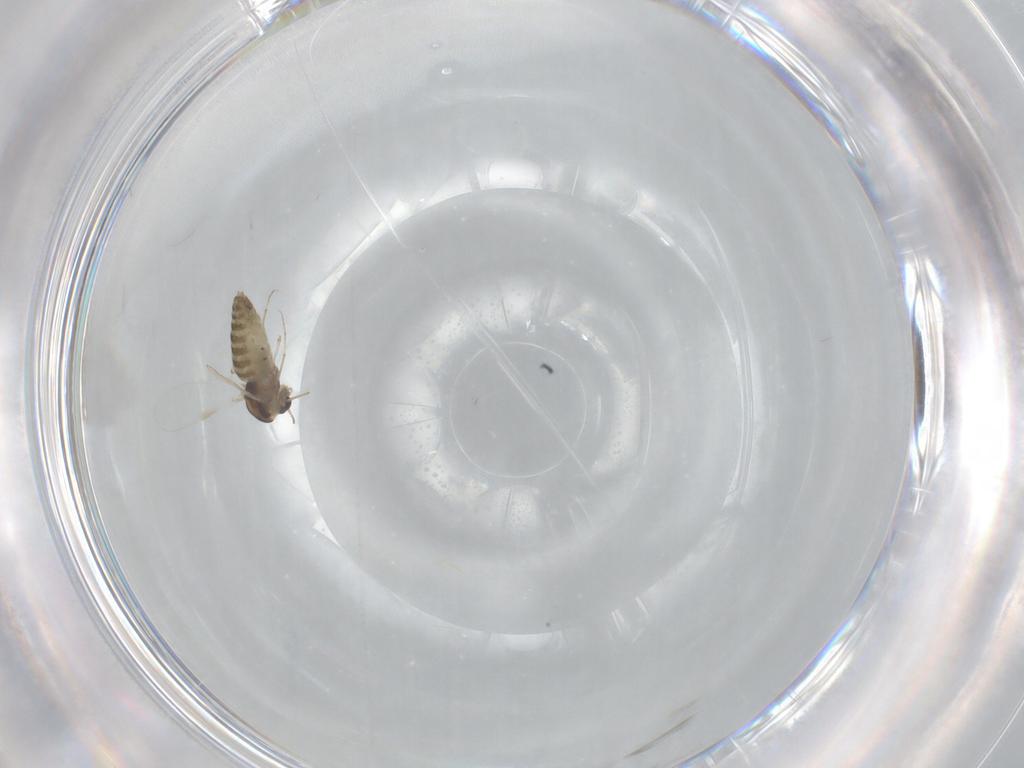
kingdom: Animalia
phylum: Arthropoda
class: Insecta
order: Diptera
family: Chironomidae
